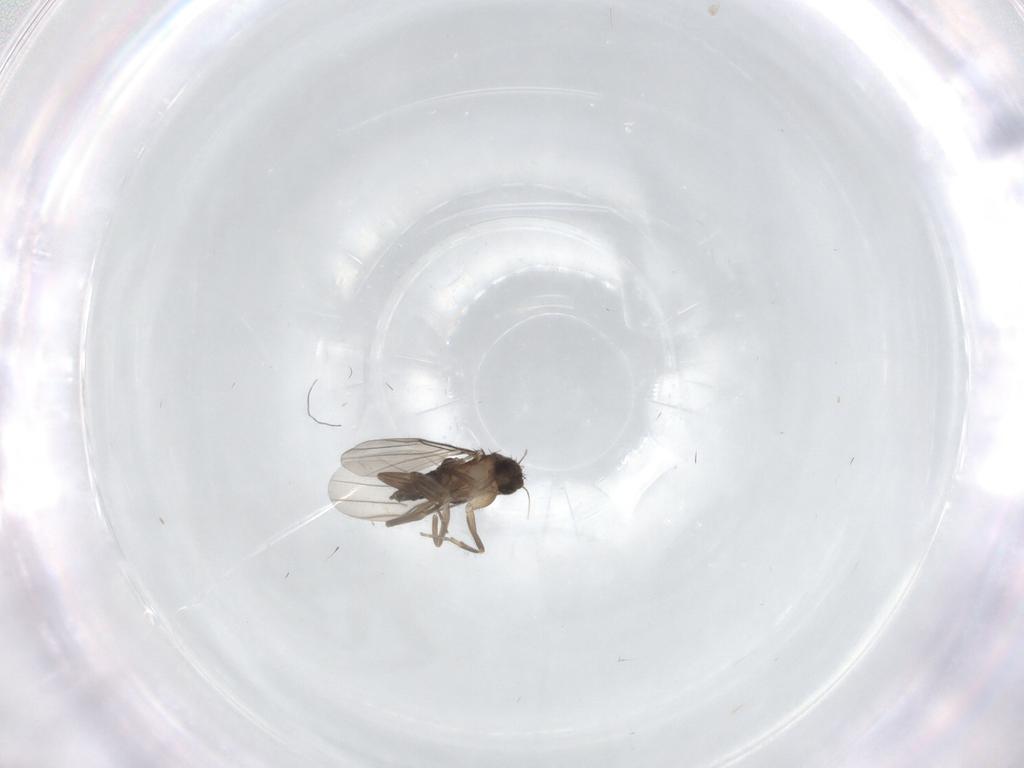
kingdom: Animalia
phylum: Arthropoda
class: Insecta
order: Diptera
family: Phoridae
